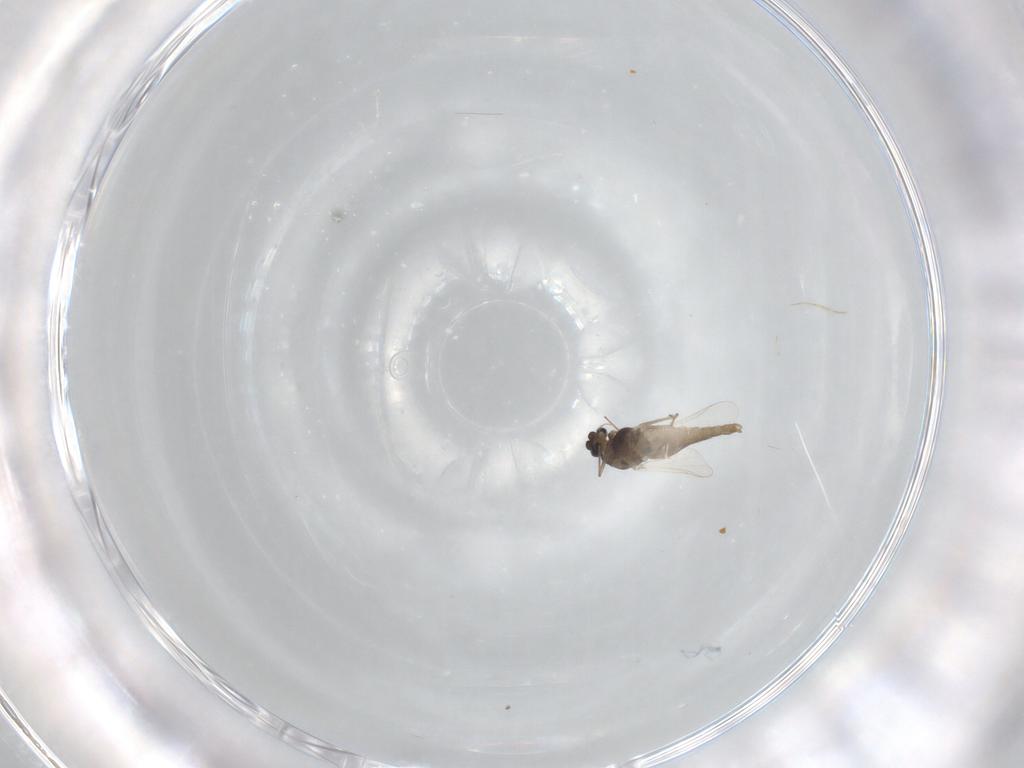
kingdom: Animalia
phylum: Arthropoda
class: Insecta
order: Diptera
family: Chironomidae
